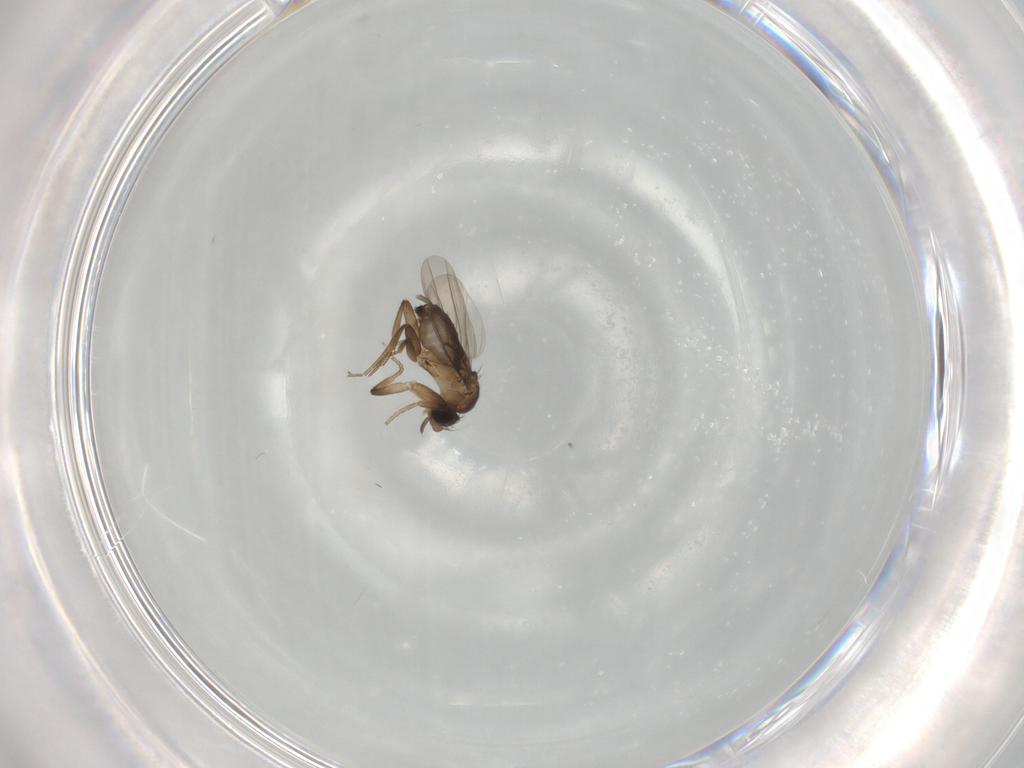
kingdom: Animalia
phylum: Arthropoda
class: Insecta
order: Diptera
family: Phoridae
